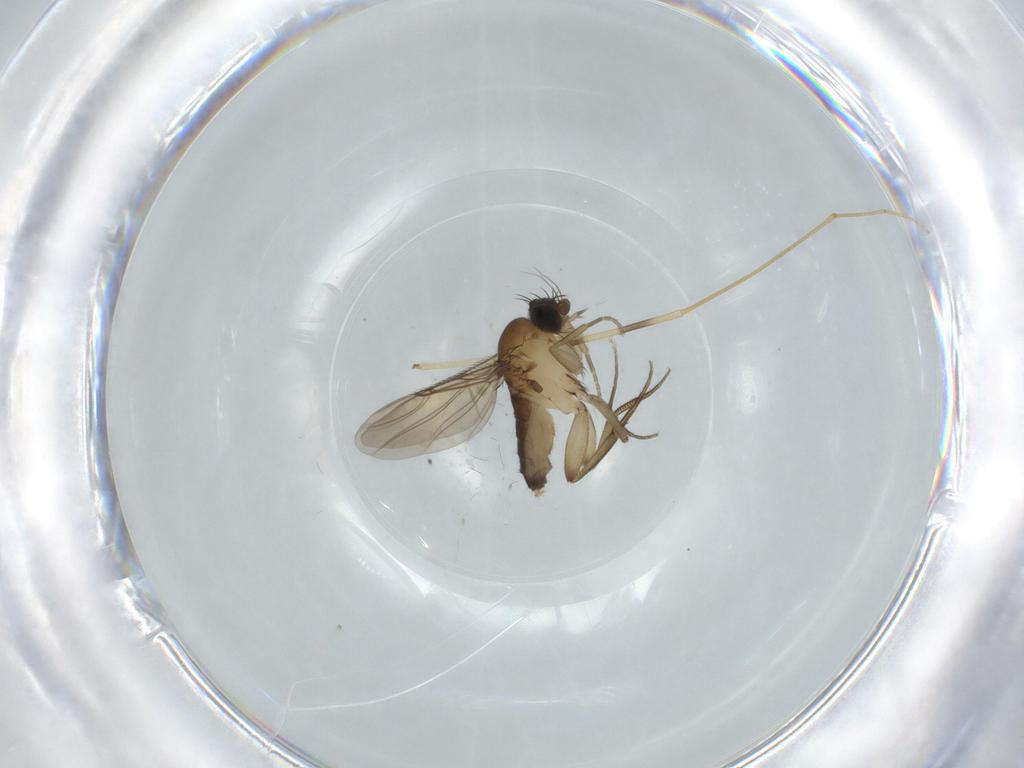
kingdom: Animalia
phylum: Arthropoda
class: Insecta
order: Diptera
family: Phoridae
